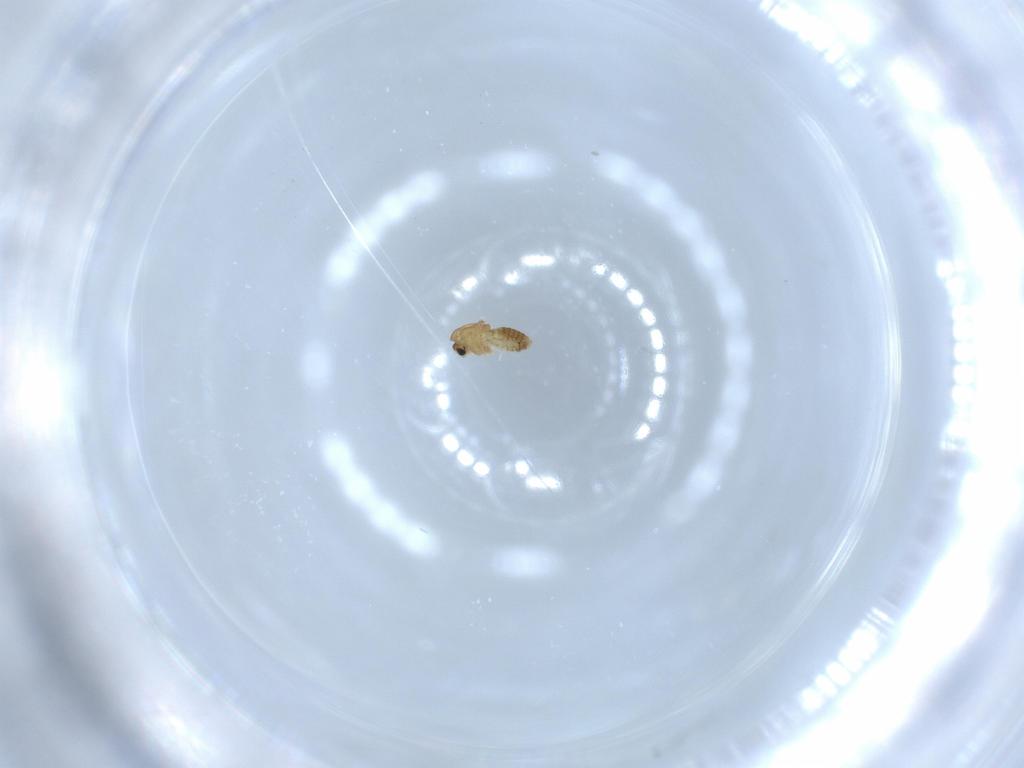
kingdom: Animalia
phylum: Arthropoda
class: Insecta
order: Diptera
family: Chironomidae
